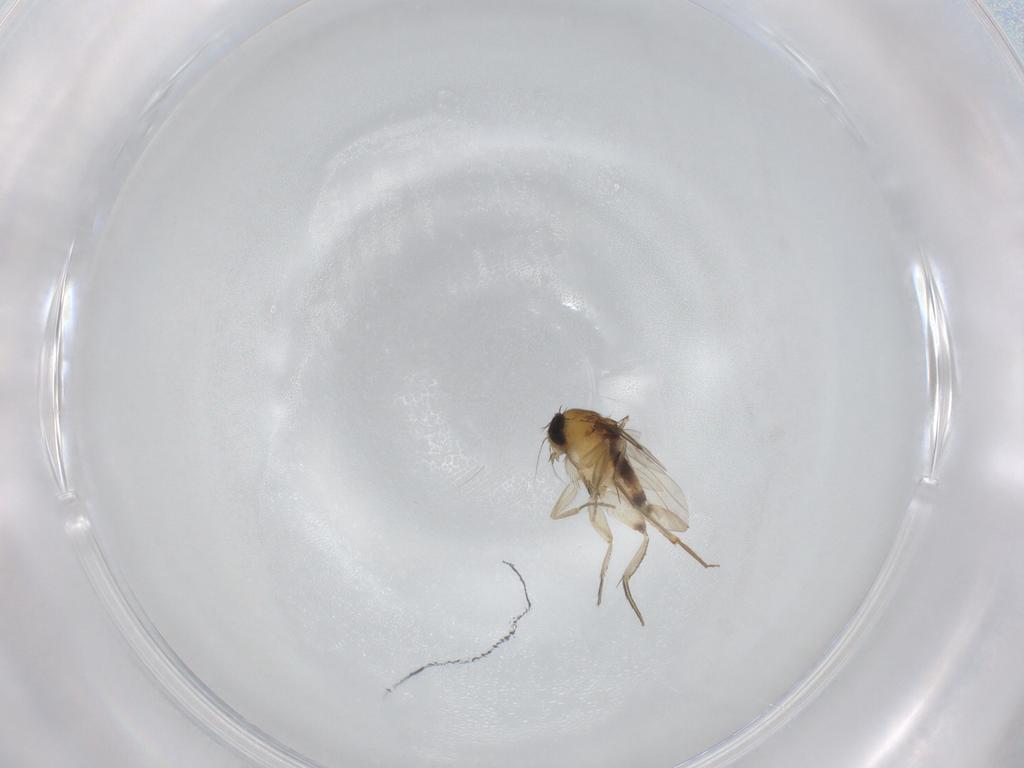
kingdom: Animalia
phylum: Arthropoda
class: Insecta
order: Diptera
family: Phoridae
